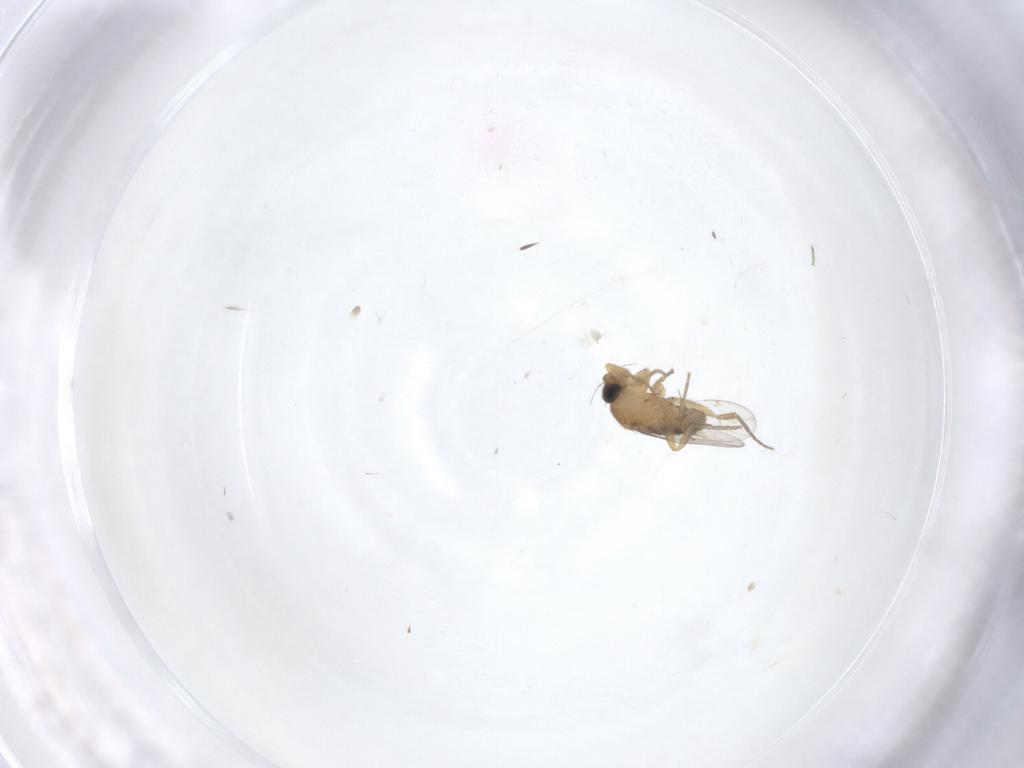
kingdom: Animalia
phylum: Arthropoda
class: Insecta
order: Diptera
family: Phoridae
